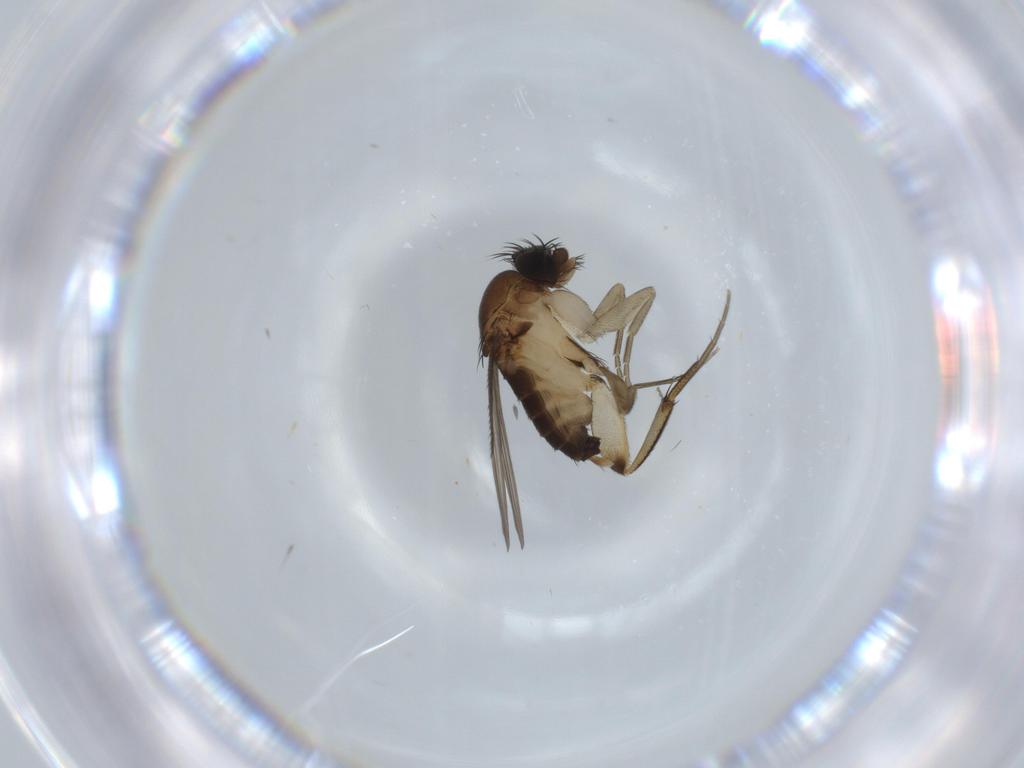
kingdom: Animalia
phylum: Arthropoda
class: Insecta
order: Diptera
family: Phoridae
